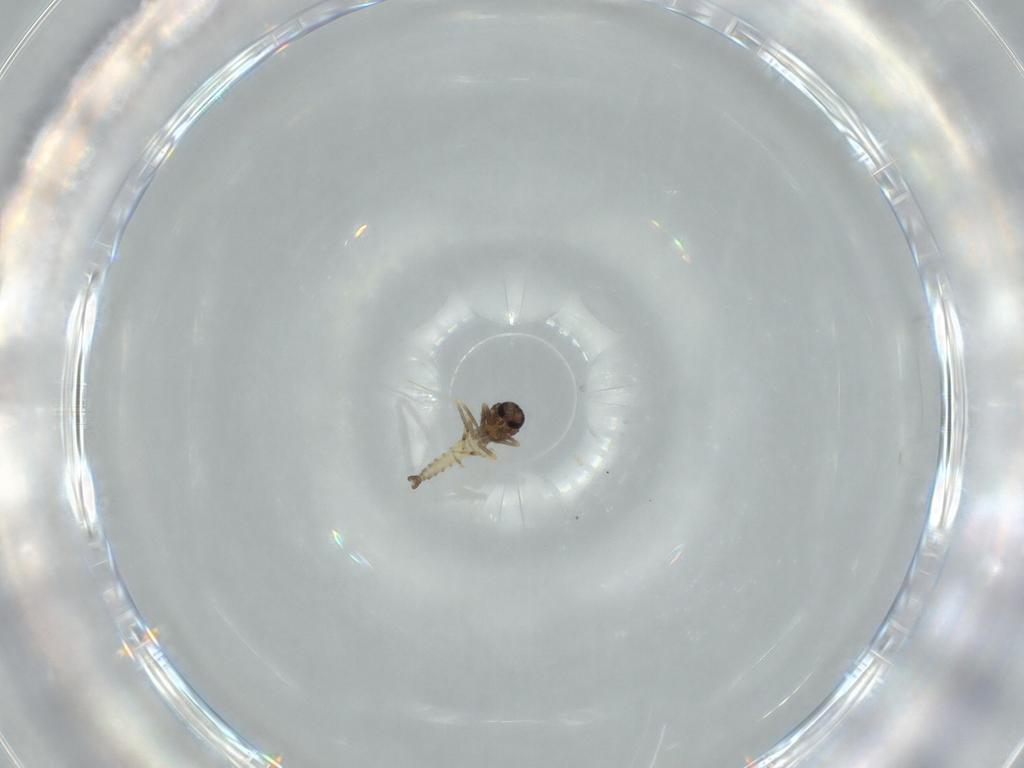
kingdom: Animalia
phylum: Arthropoda
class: Insecta
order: Diptera
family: Ceratopogonidae
